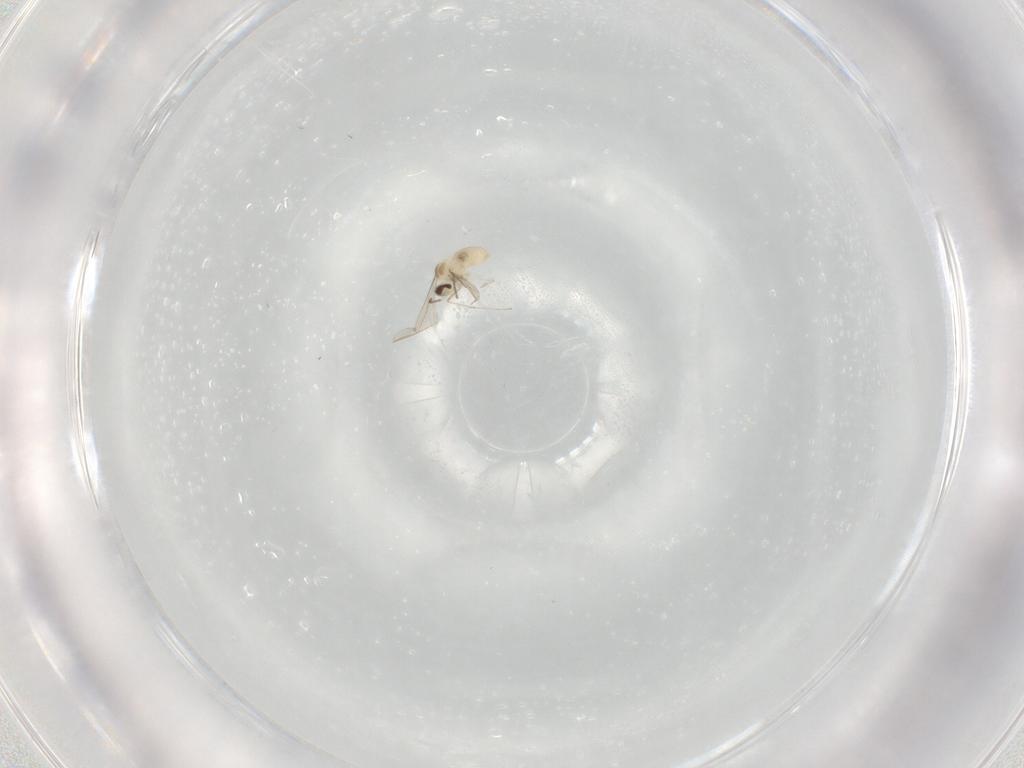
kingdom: Animalia
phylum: Arthropoda
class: Insecta
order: Diptera
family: Cecidomyiidae
